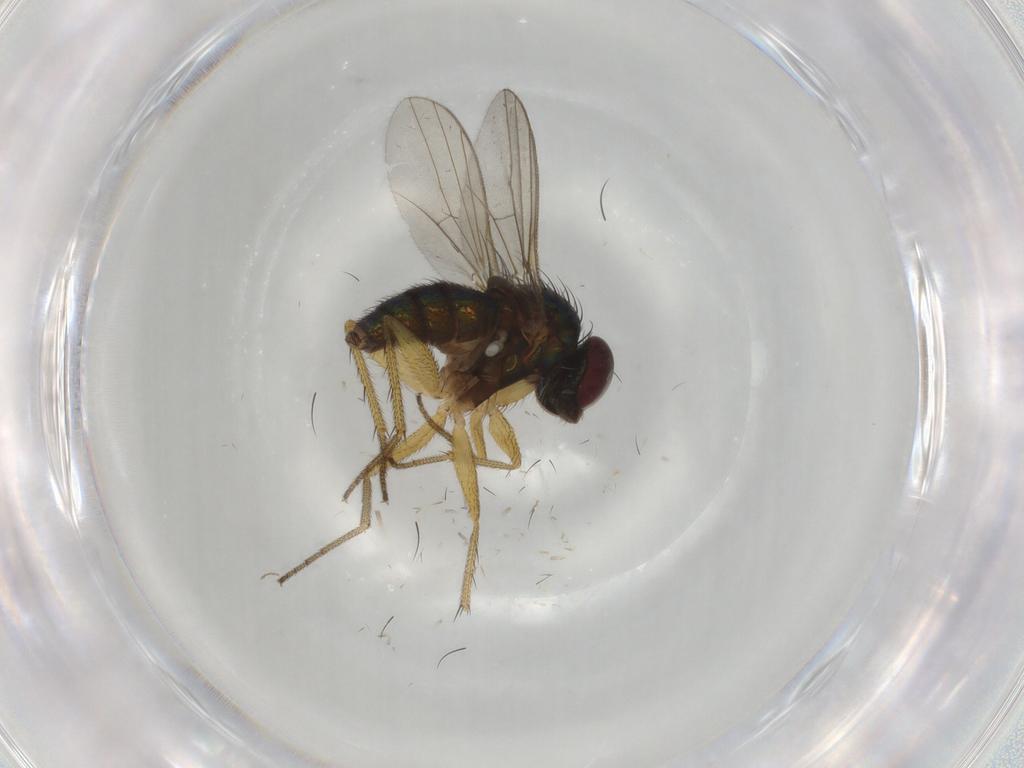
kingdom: Animalia
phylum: Arthropoda
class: Insecta
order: Diptera
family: Dolichopodidae
